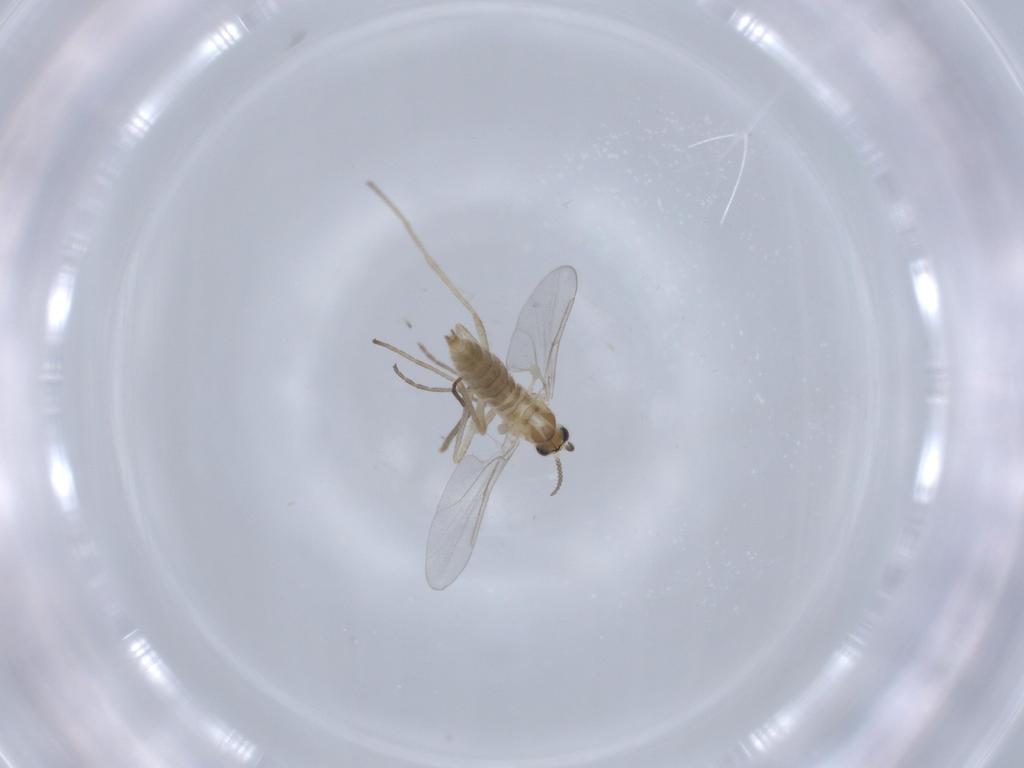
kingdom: Animalia
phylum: Arthropoda
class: Insecta
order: Diptera
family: Cecidomyiidae
